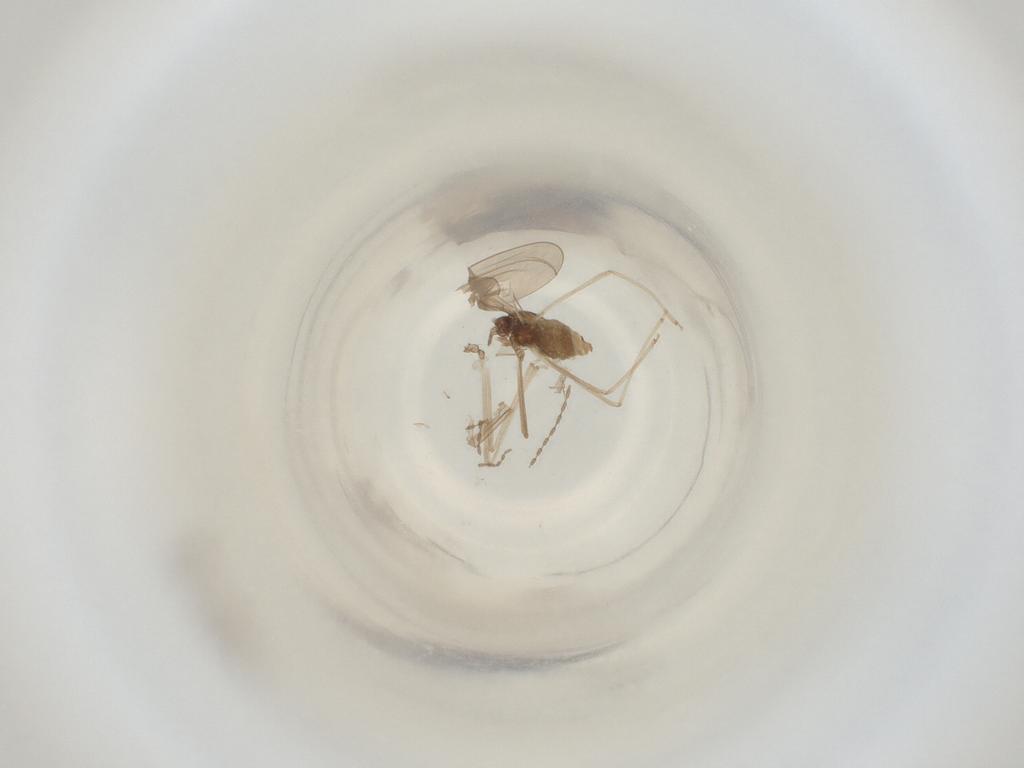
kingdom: Animalia
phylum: Arthropoda
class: Insecta
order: Diptera
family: Cecidomyiidae
